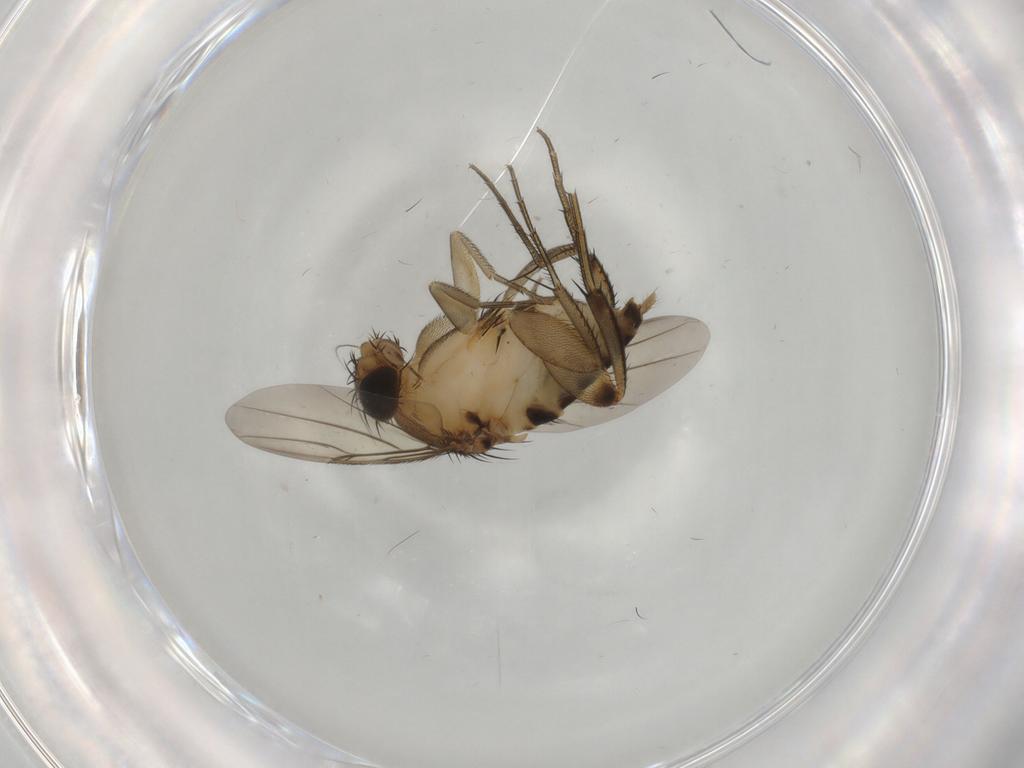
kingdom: Animalia
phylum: Arthropoda
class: Insecta
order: Diptera
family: Phoridae
